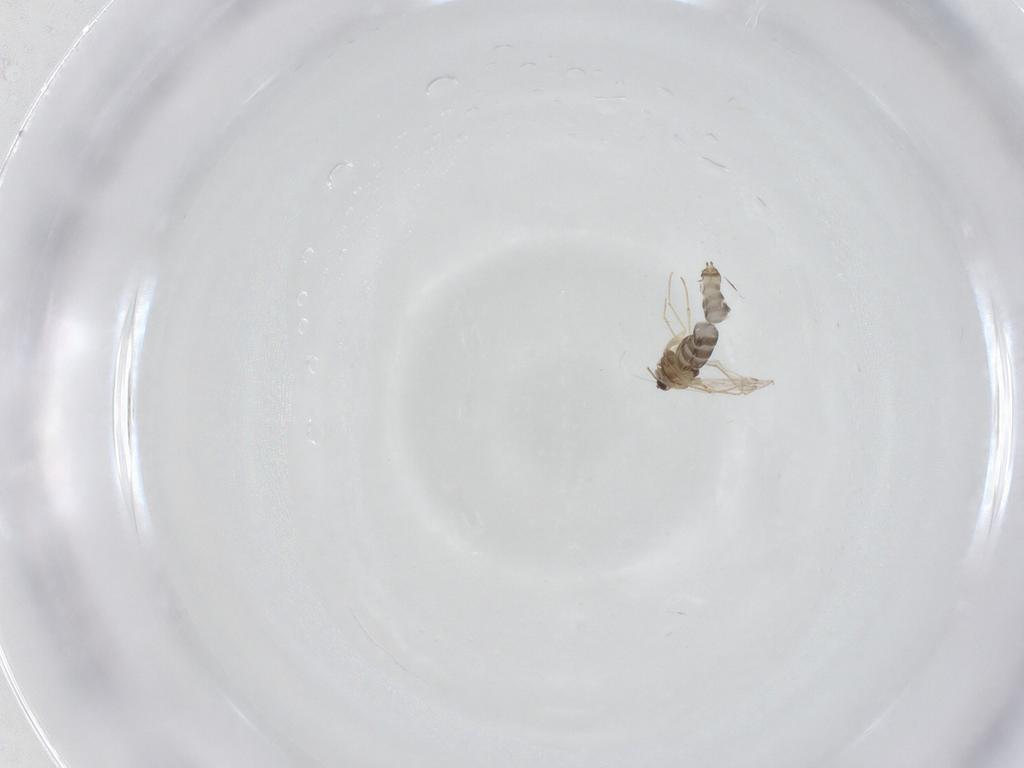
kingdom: Animalia
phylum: Arthropoda
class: Insecta
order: Diptera
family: Chironomidae
